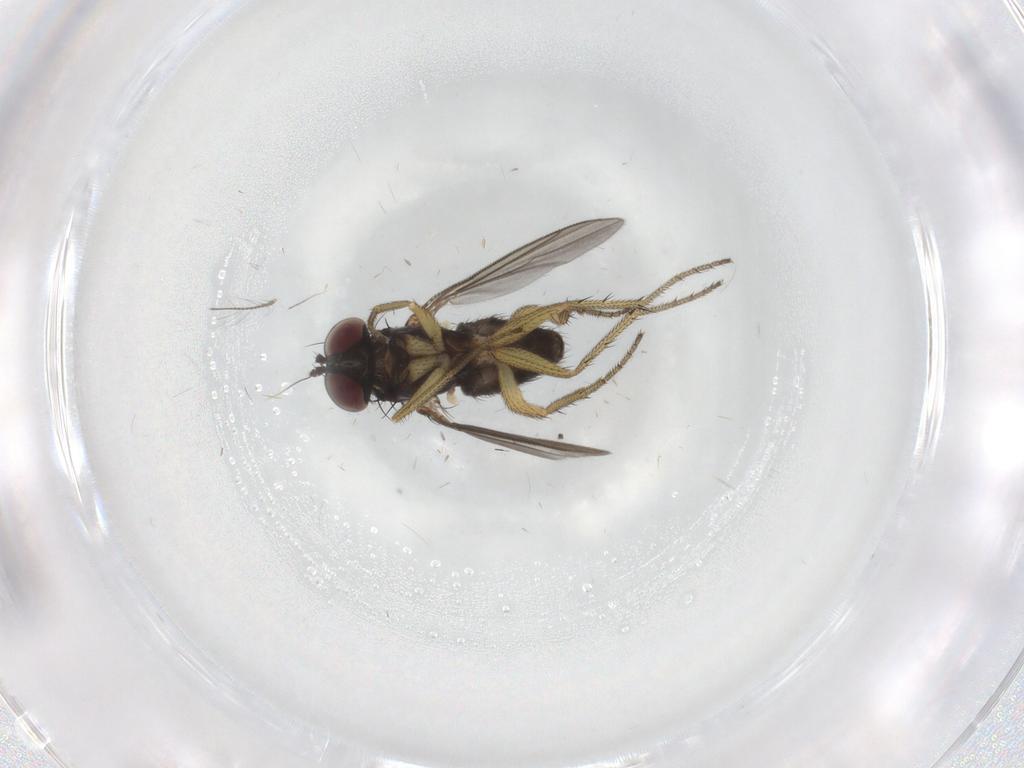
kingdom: Animalia
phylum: Arthropoda
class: Insecta
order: Diptera
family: Dolichopodidae
